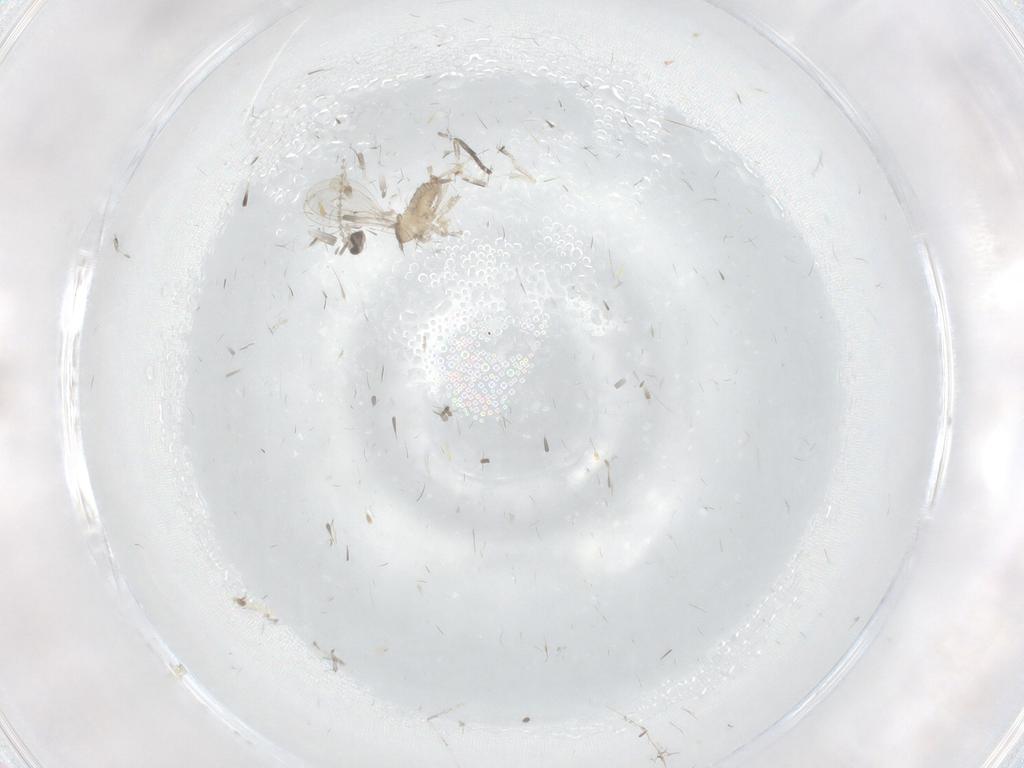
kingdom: Animalia
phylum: Arthropoda
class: Insecta
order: Diptera
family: Cecidomyiidae
